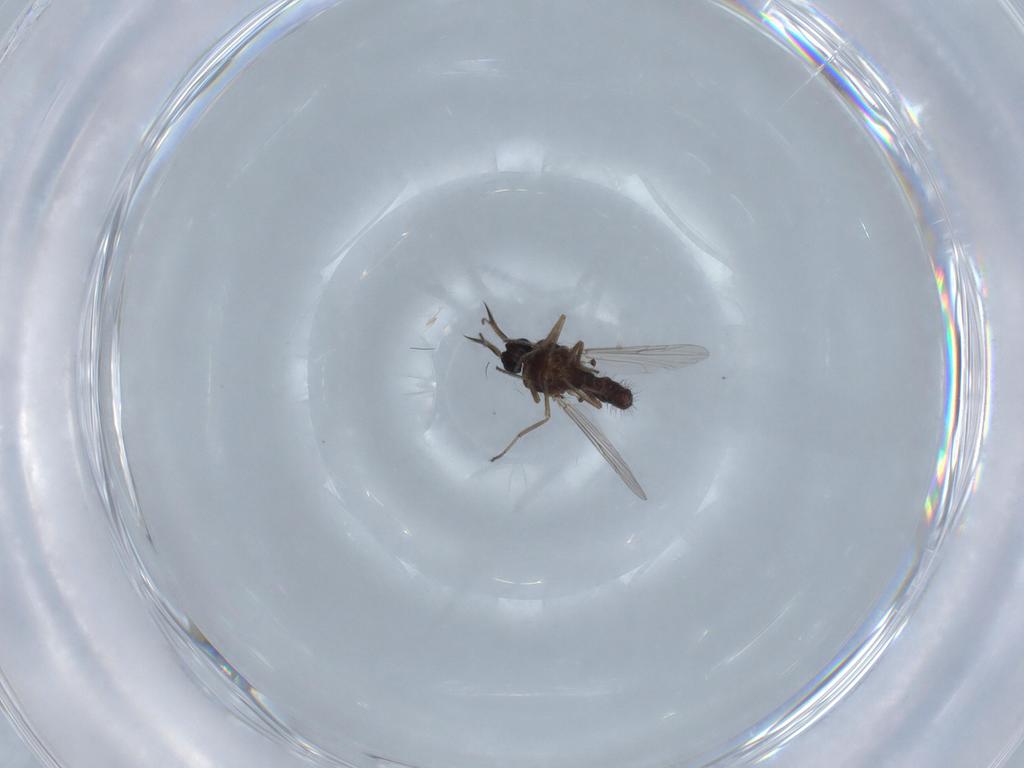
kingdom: Animalia
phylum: Arthropoda
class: Insecta
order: Diptera
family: Ceratopogonidae
